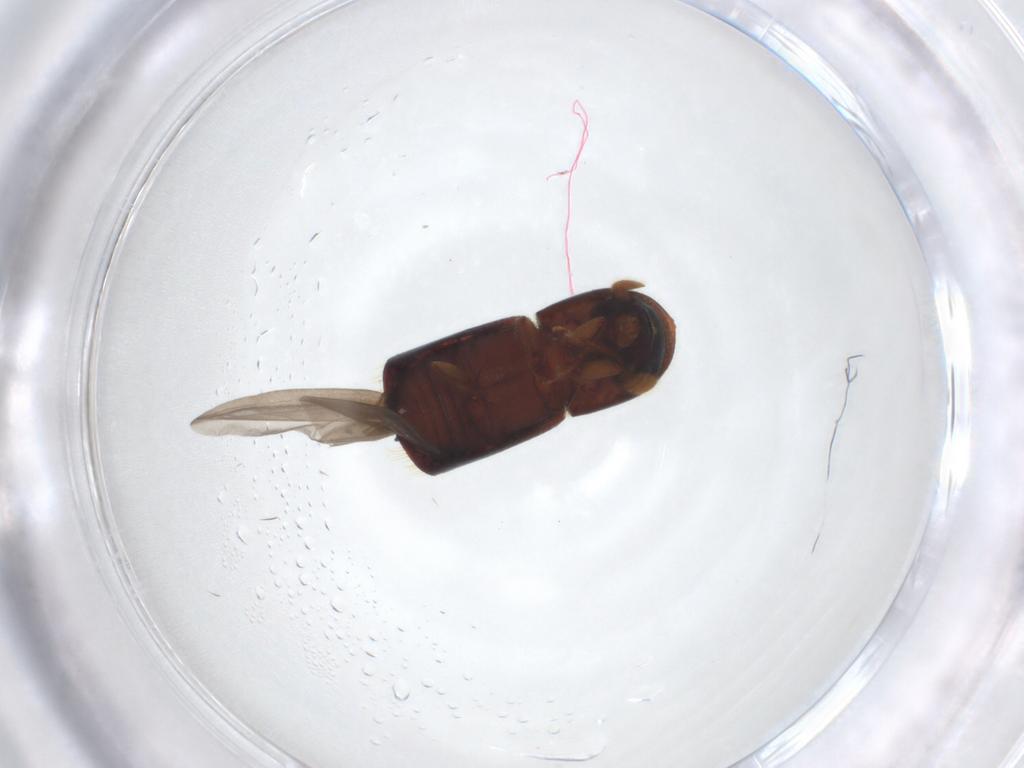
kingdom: Animalia
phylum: Arthropoda
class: Insecta
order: Coleoptera
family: Curculionidae
